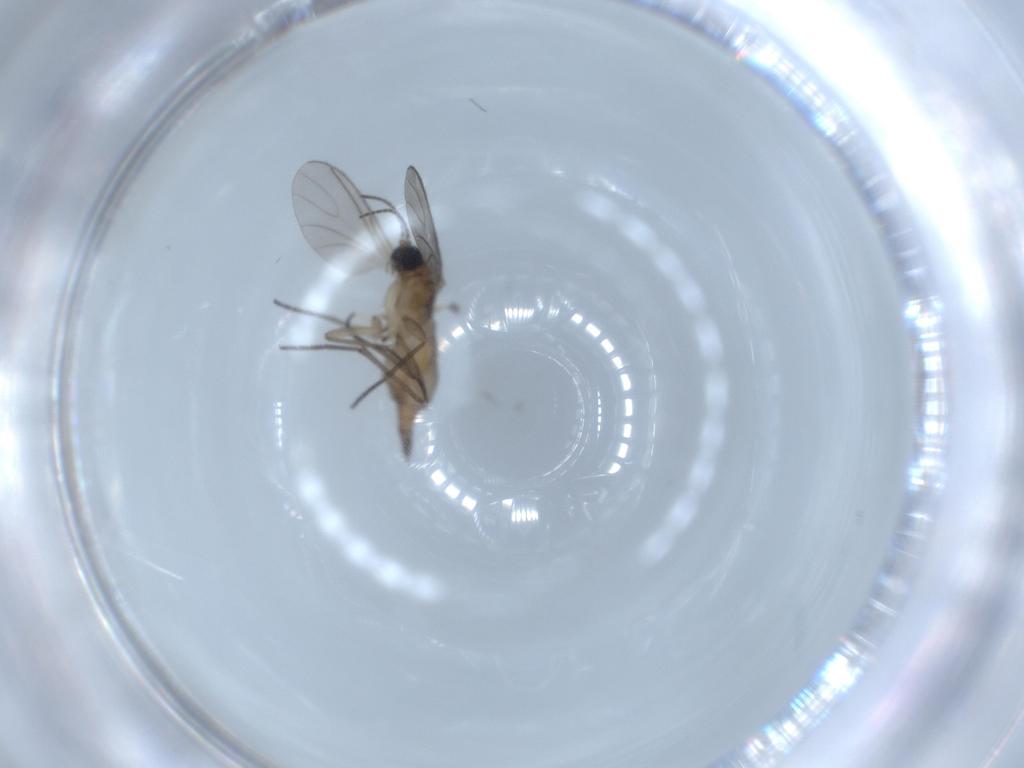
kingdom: Animalia
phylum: Arthropoda
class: Insecta
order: Diptera
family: Sciaridae
